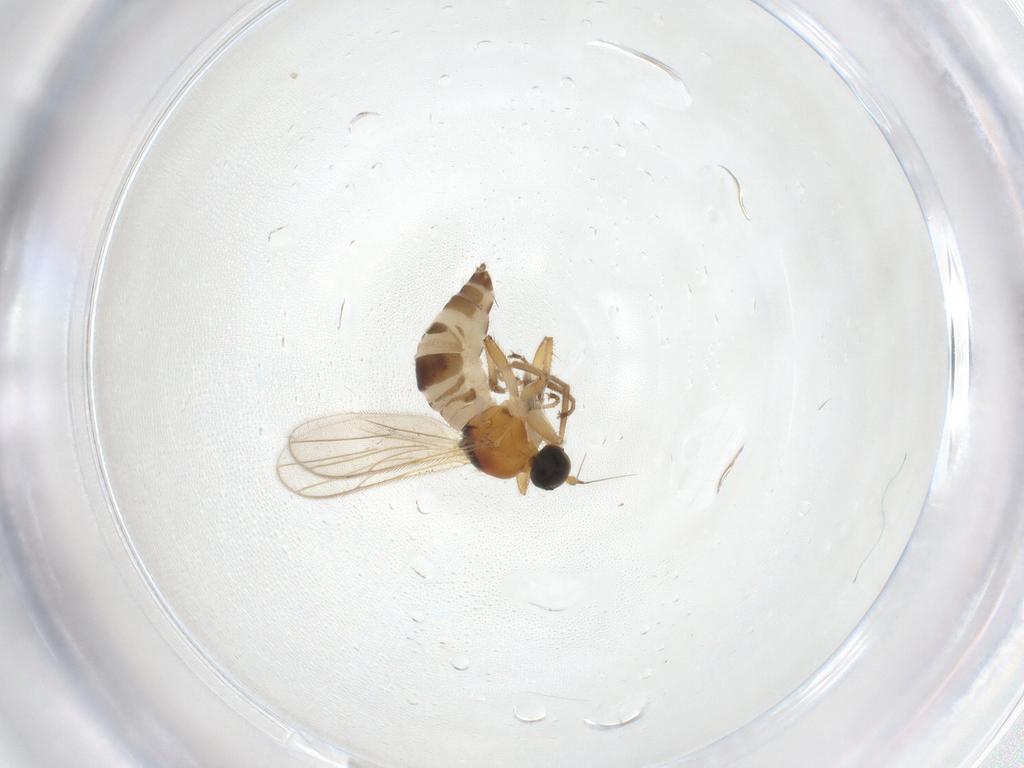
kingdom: Animalia
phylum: Arthropoda
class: Insecta
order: Diptera
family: Hybotidae
